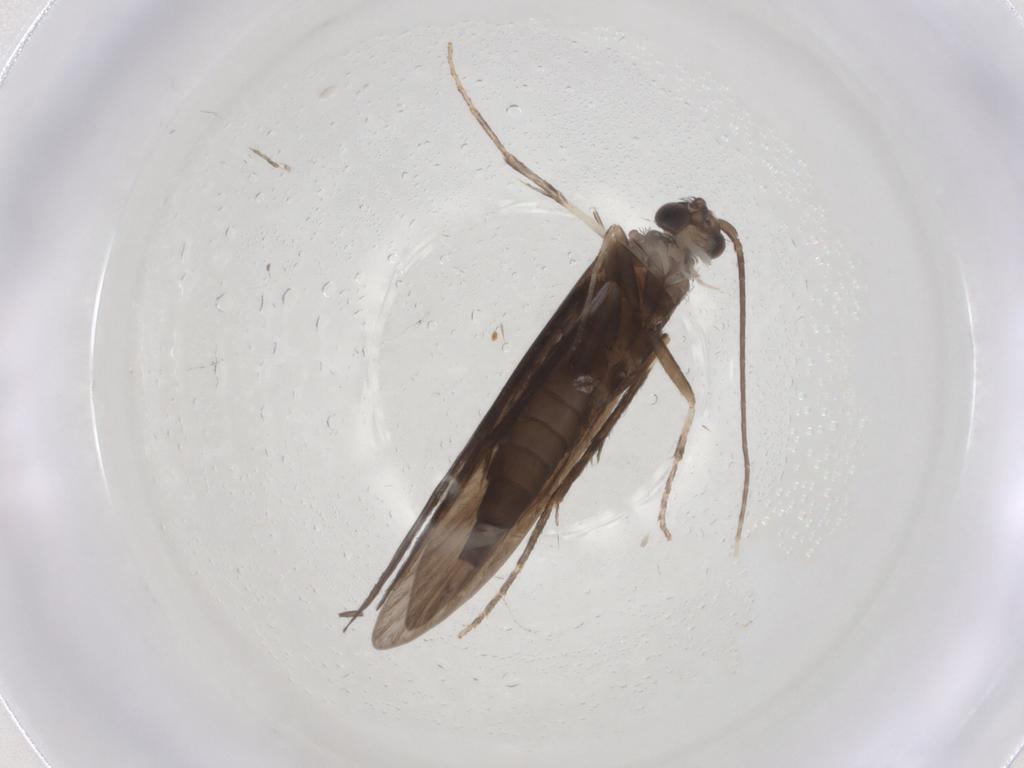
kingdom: Animalia
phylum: Arthropoda
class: Insecta
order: Trichoptera
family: Xiphocentronidae
